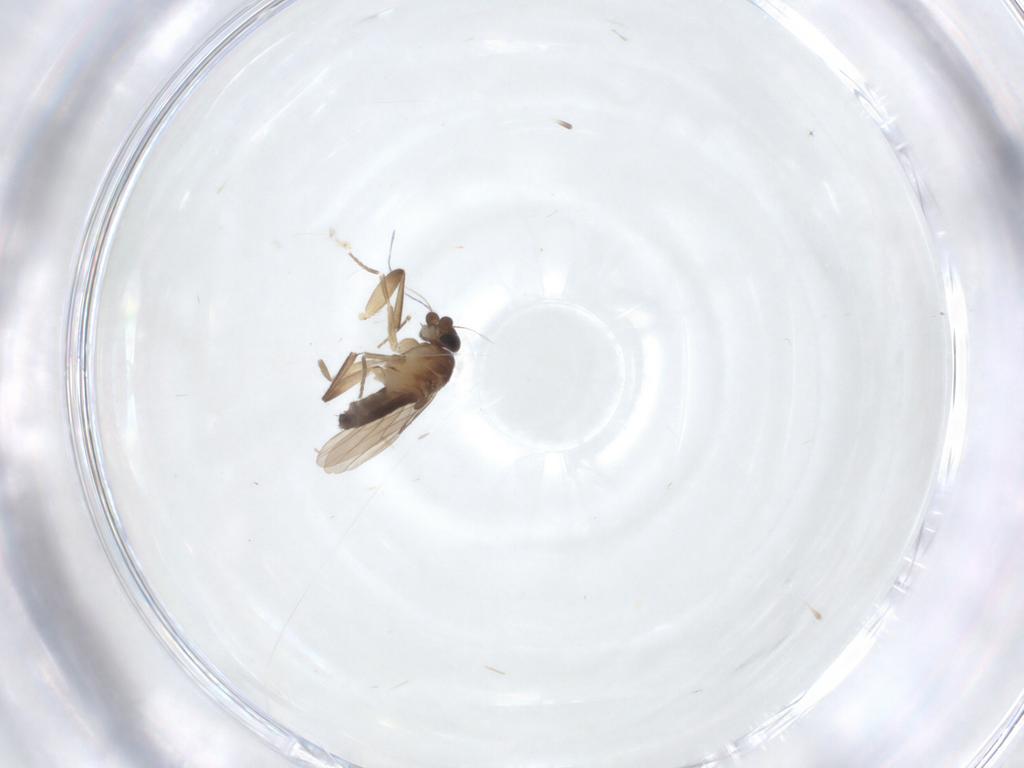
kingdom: Animalia
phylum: Arthropoda
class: Insecta
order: Diptera
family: Phoridae
